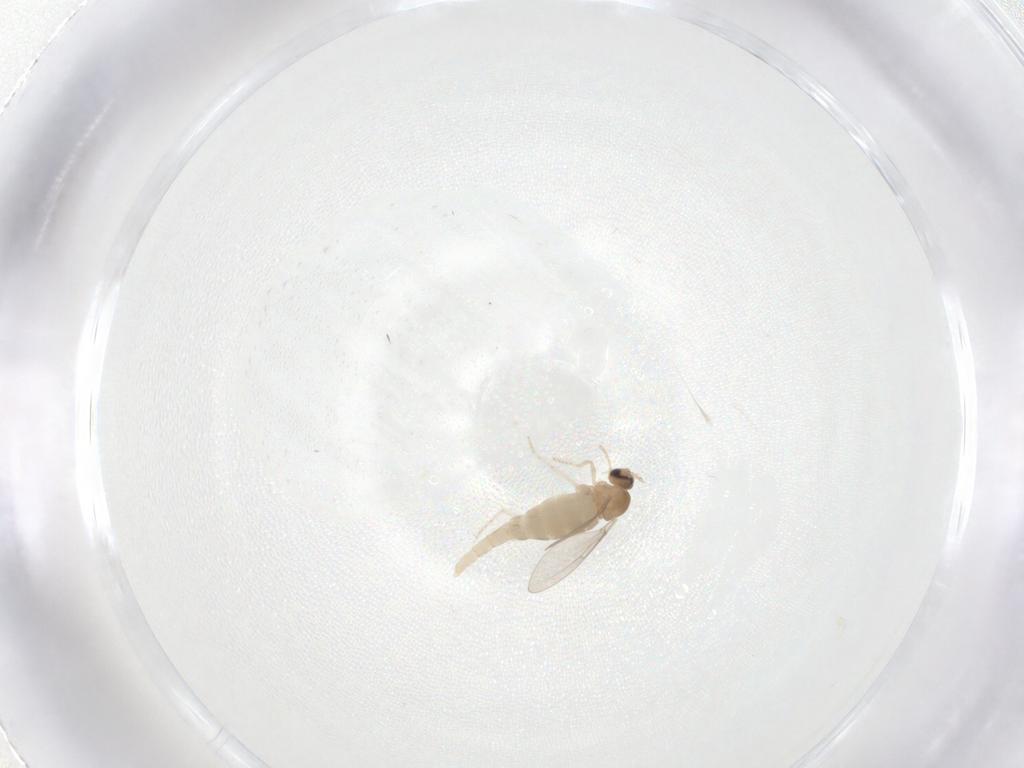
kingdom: Animalia
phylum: Arthropoda
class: Insecta
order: Diptera
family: Cecidomyiidae
